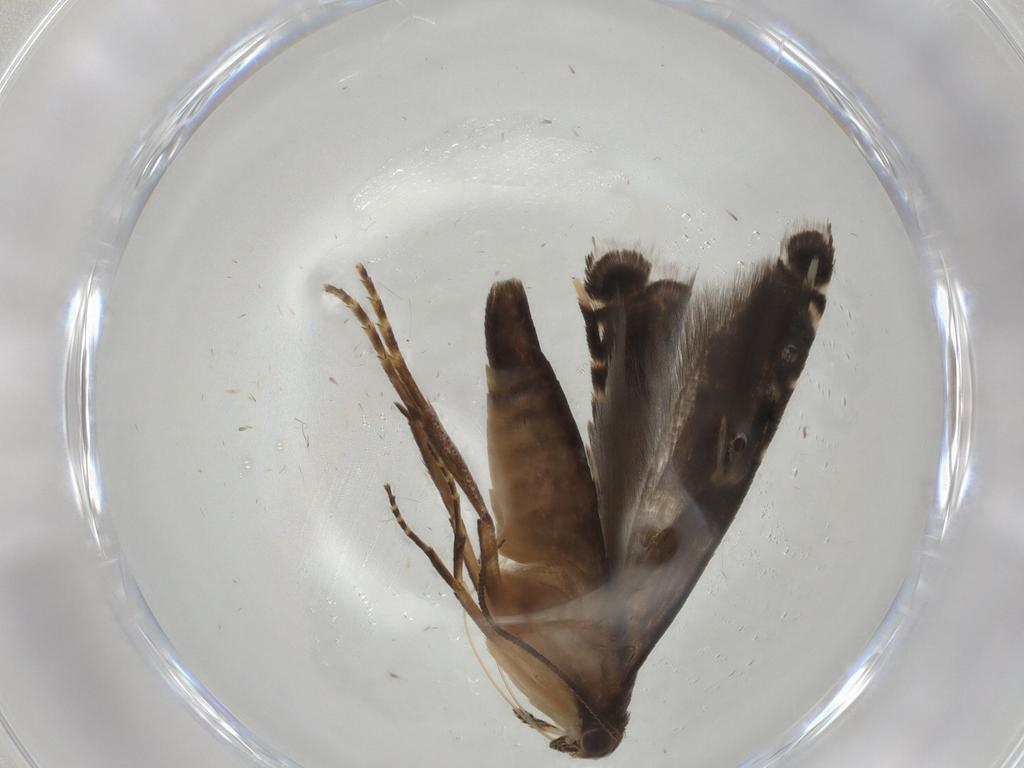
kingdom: Animalia
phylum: Arthropoda
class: Insecta
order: Lepidoptera
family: Glyphipterigidae
